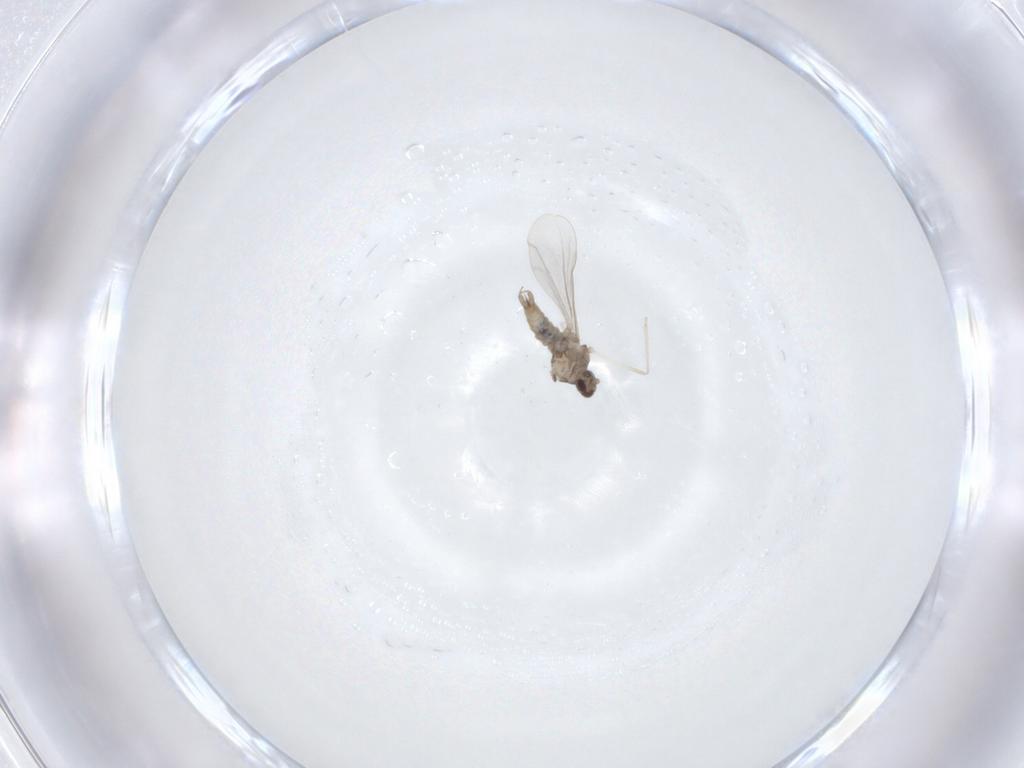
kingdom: Animalia
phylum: Arthropoda
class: Insecta
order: Diptera
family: Cecidomyiidae
